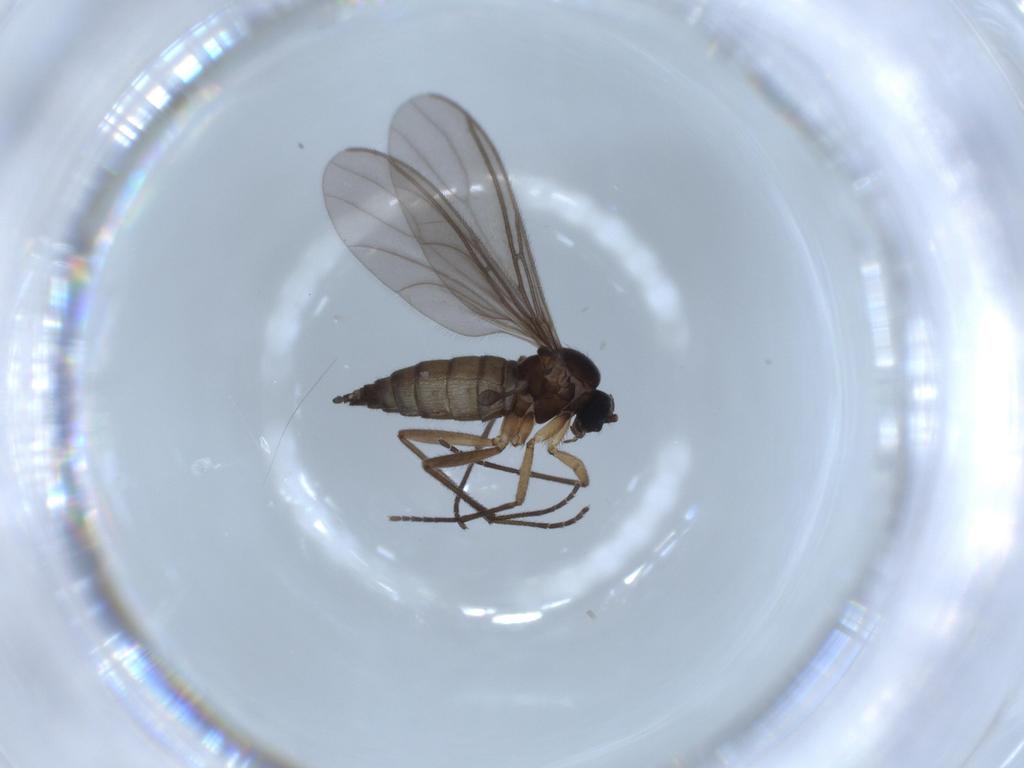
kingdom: Animalia
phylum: Arthropoda
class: Insecta
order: Diptera
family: Sciaridae
